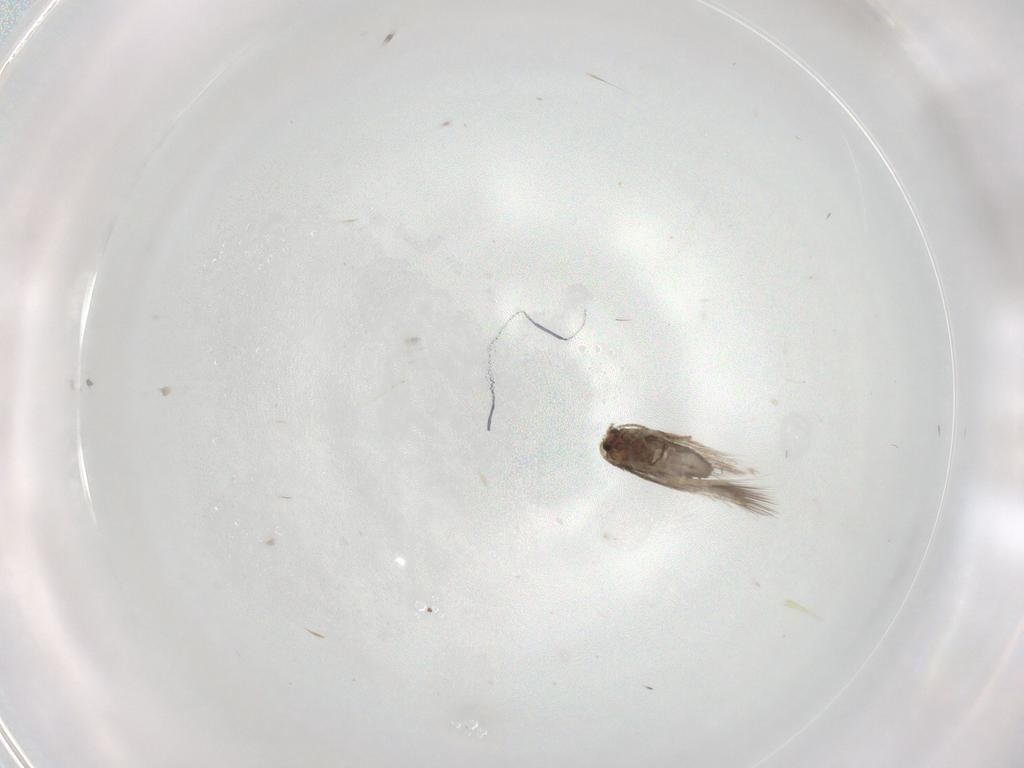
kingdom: Animalia
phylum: Arthropoda
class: Insecta
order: Lepidoptera
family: Nepticulidae
